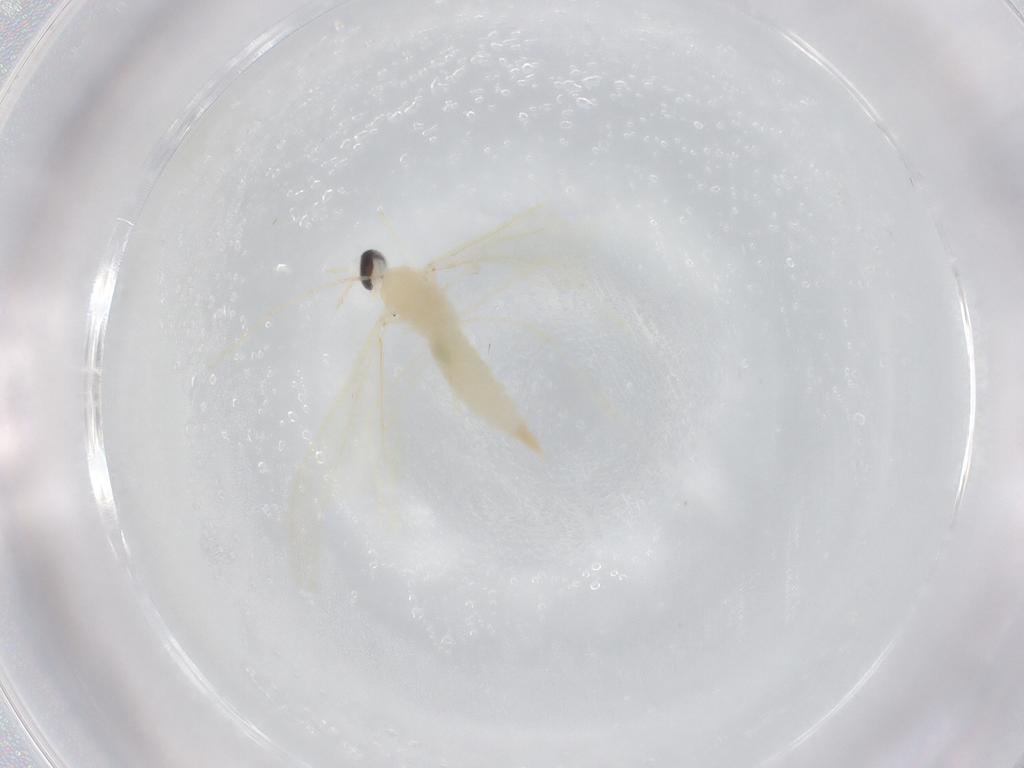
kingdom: Animalia
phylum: Arthropoda
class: Insecta
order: Diptera
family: Cecidomyiidae
